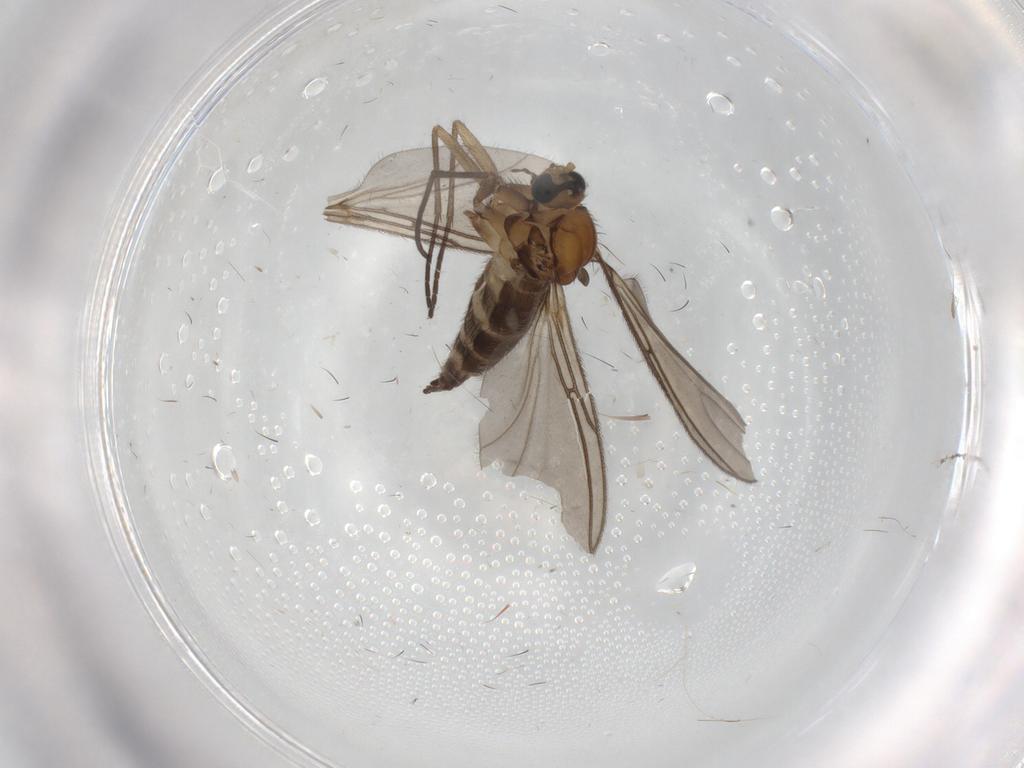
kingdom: Animalia
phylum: Arthropoda
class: Insecta
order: Diptera
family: Sciaridae
